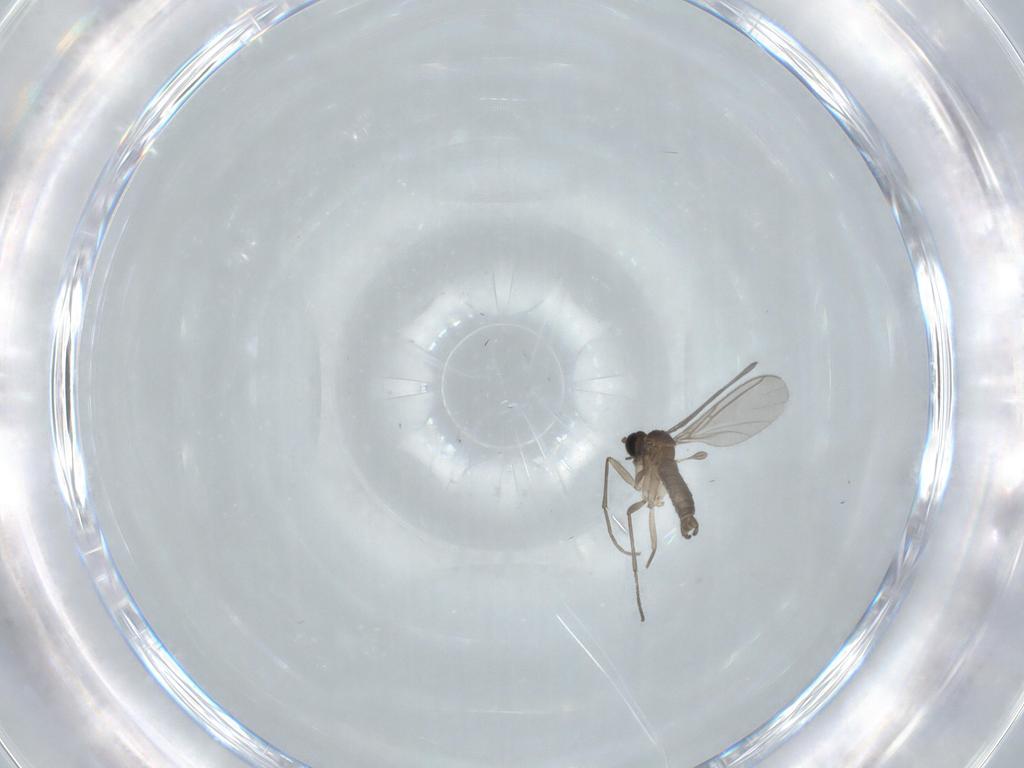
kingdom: Animalia
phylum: Arthropoda
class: Insecta
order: Diptera
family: Sciaridae
